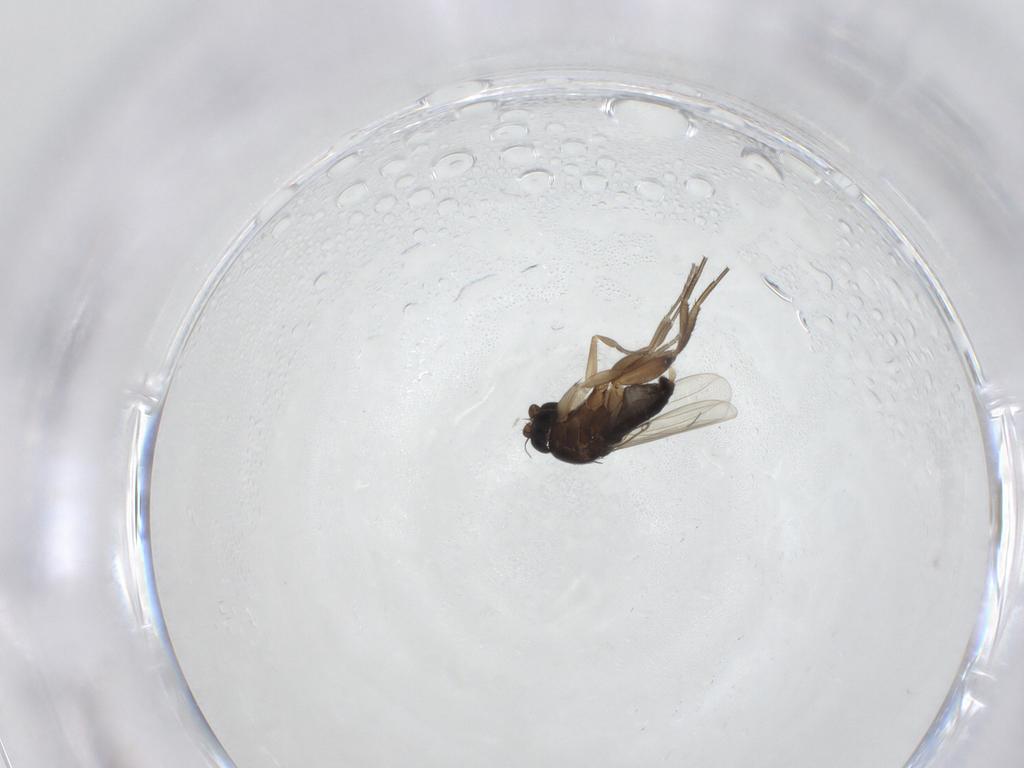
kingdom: Animalia
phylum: Arthropoda
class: Insecta
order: Diptera
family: Phoridae
